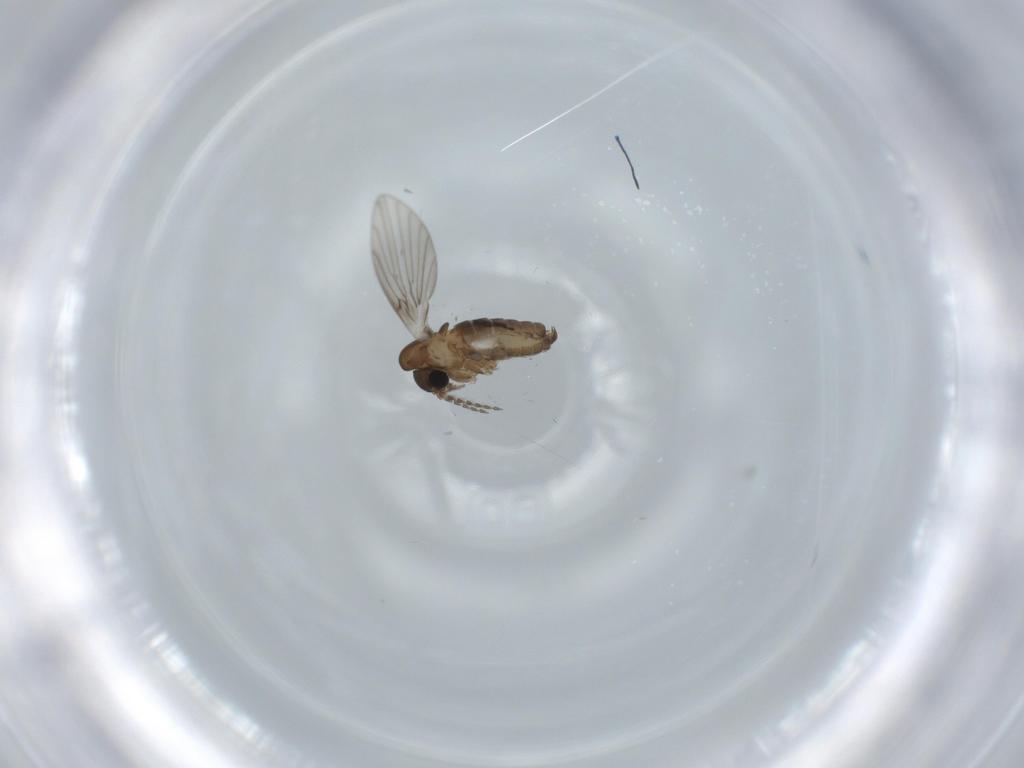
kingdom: Animalia
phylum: Arthropoda
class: Insecta
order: Diptera
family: Psychodidae
